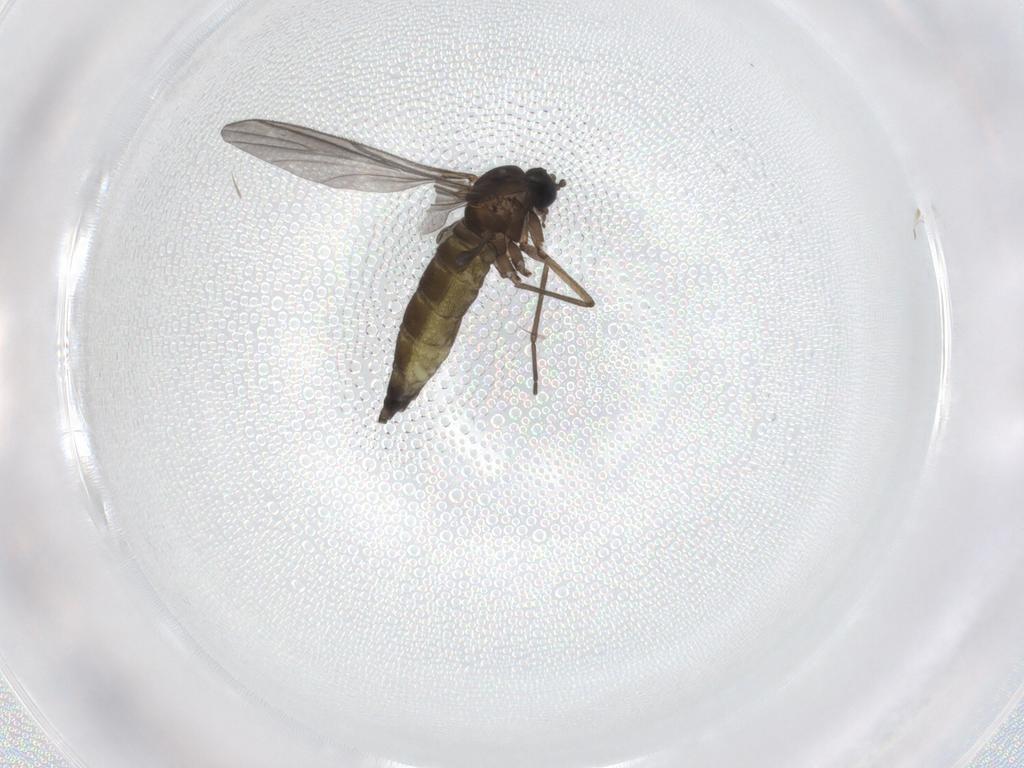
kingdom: Animalia
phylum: Arthropoda
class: Insecta
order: Diptera
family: Sciaridae
